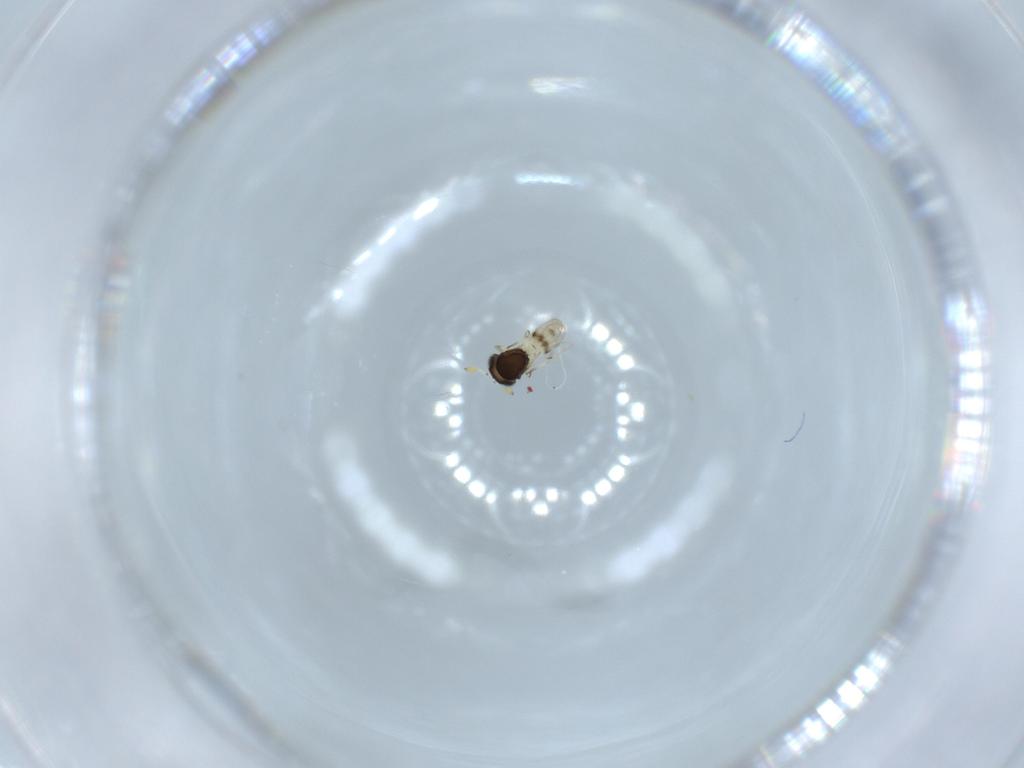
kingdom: Animalia
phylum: Arthropoda
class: Insecta
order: Hymenoptera
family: Scelionidae
